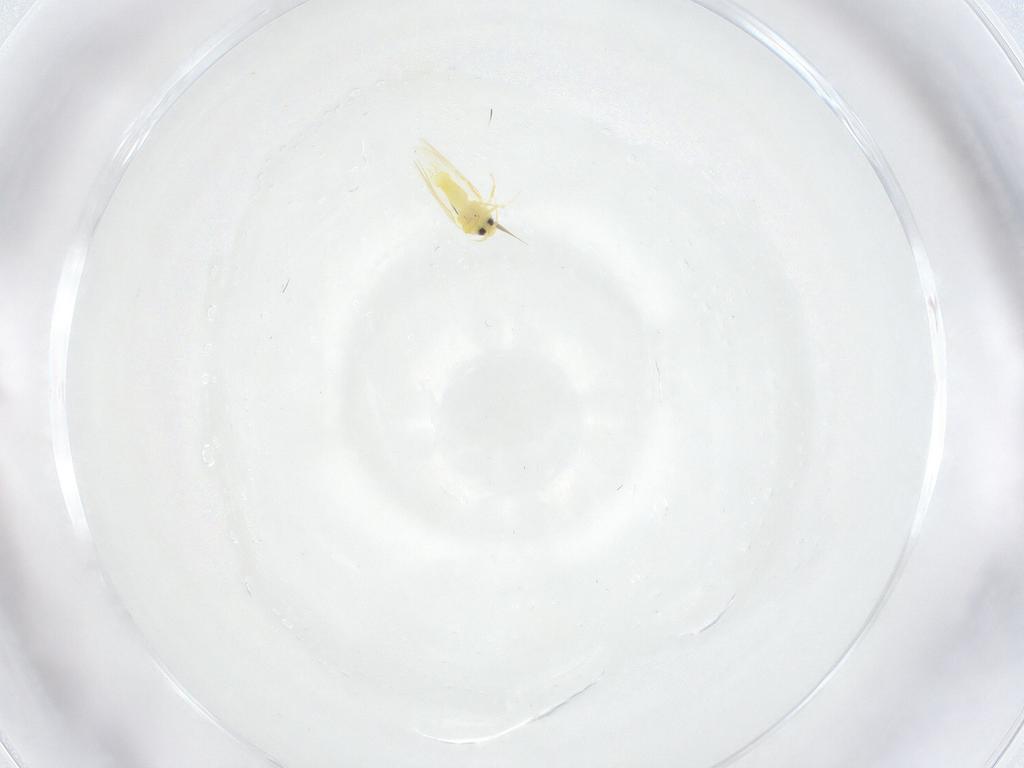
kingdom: Animalia
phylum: Arthropoda
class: Insecta
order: Hemiptera
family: Aleyrodidae
